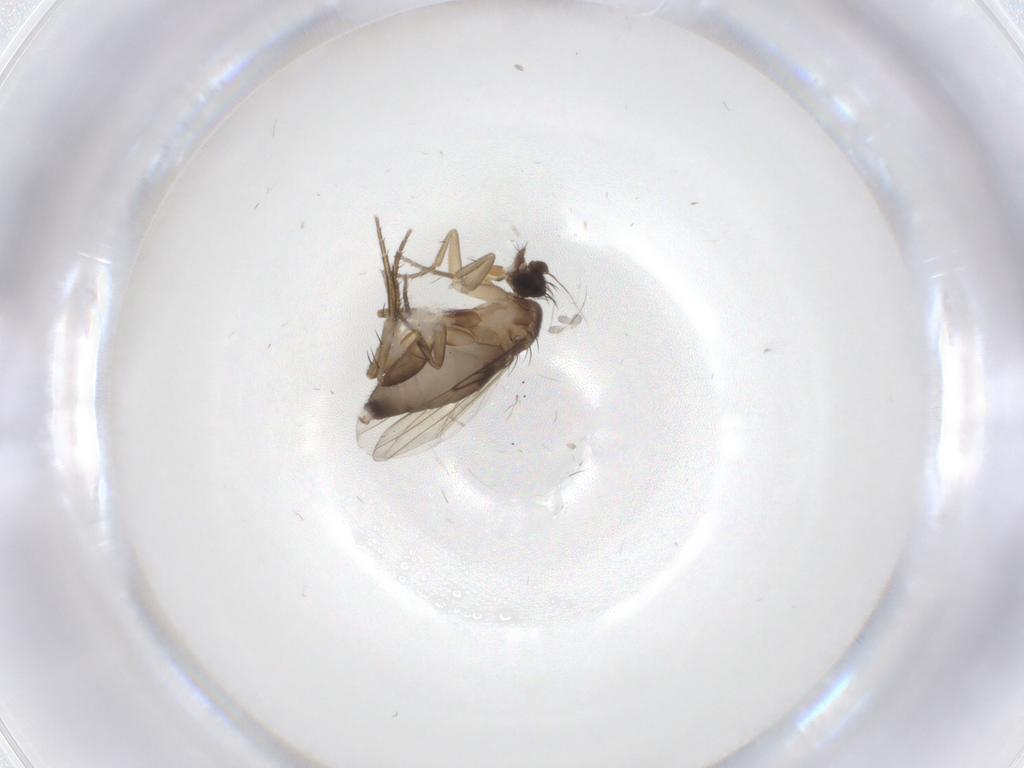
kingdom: Animalia
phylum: Arthropoda
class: Insecta
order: Diptera
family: Phoridae
